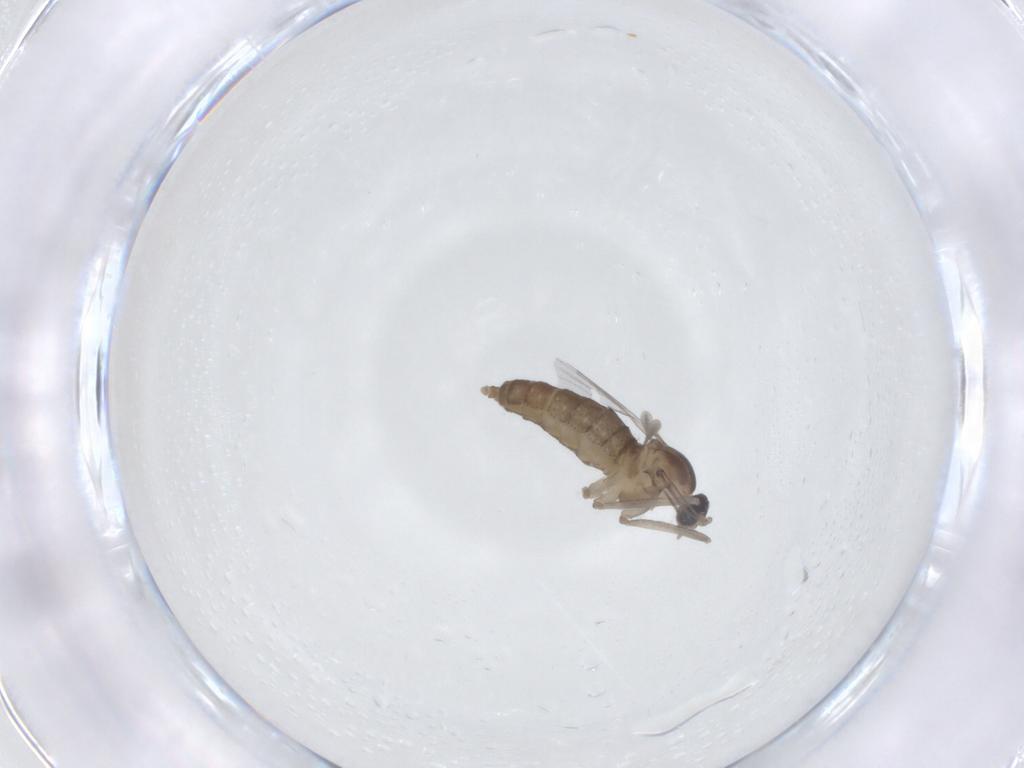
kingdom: Animalia
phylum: Arthropoda
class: Insecta
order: Diptera
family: Cecidomyiidae
